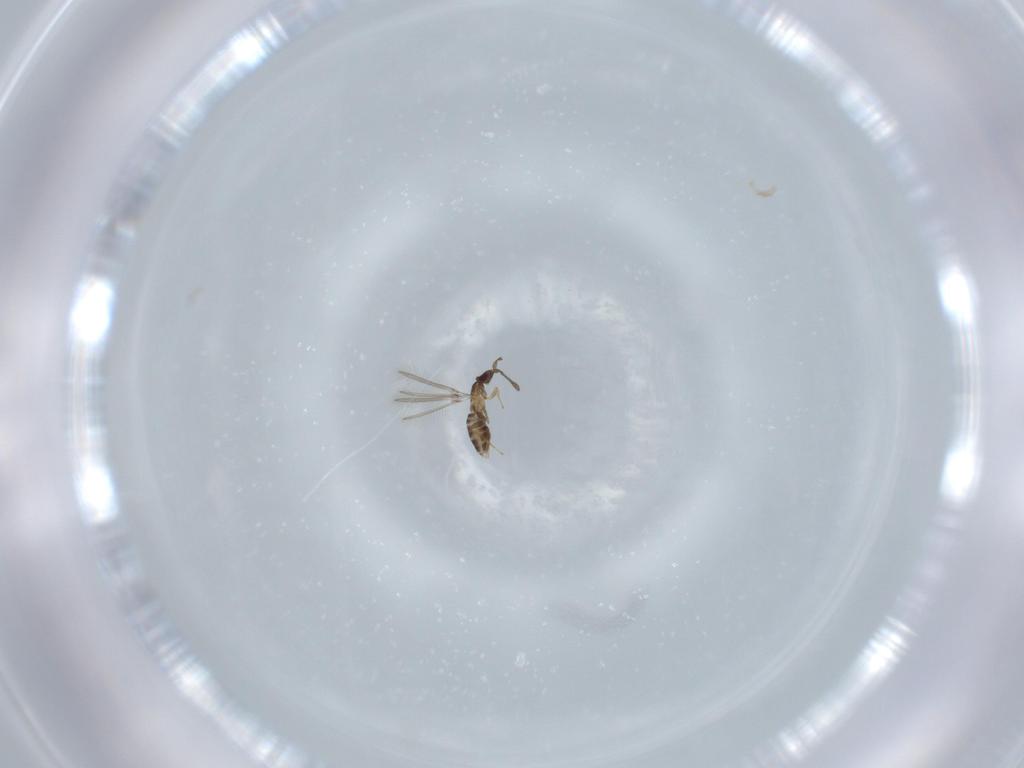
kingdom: Animalia
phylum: Arthropoda
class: Insecta
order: Hymenoptera
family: Mymaridae
